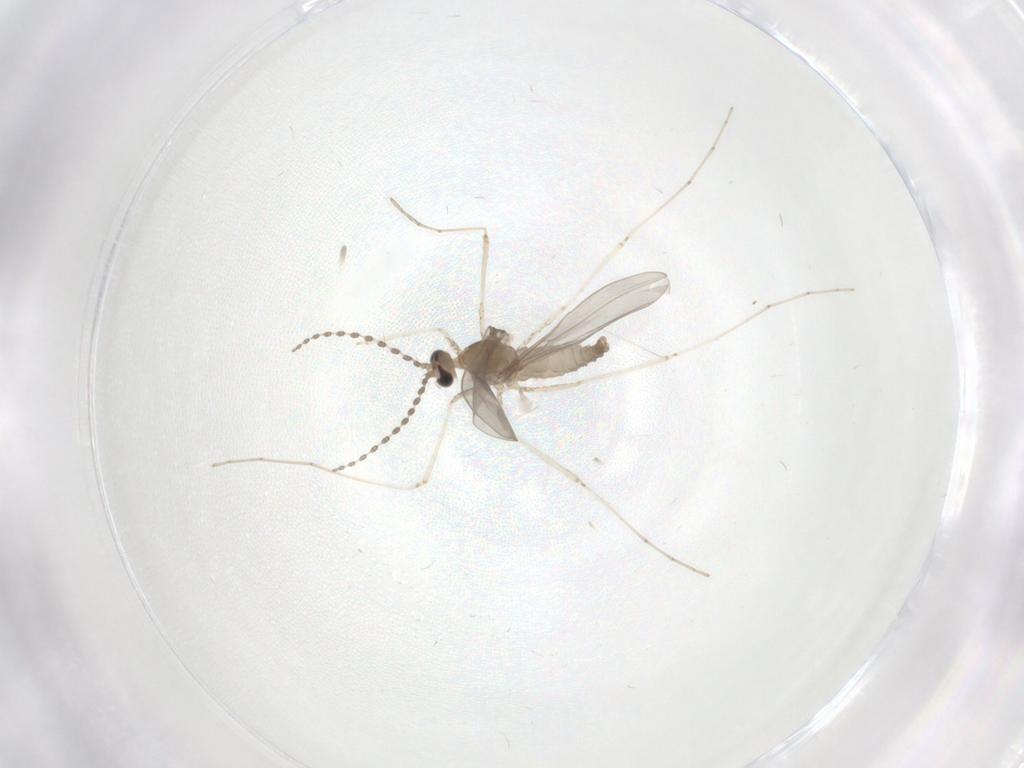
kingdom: Animalia
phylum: Arthropoda
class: Insecta
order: Diptera
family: Cecidomyiidae
